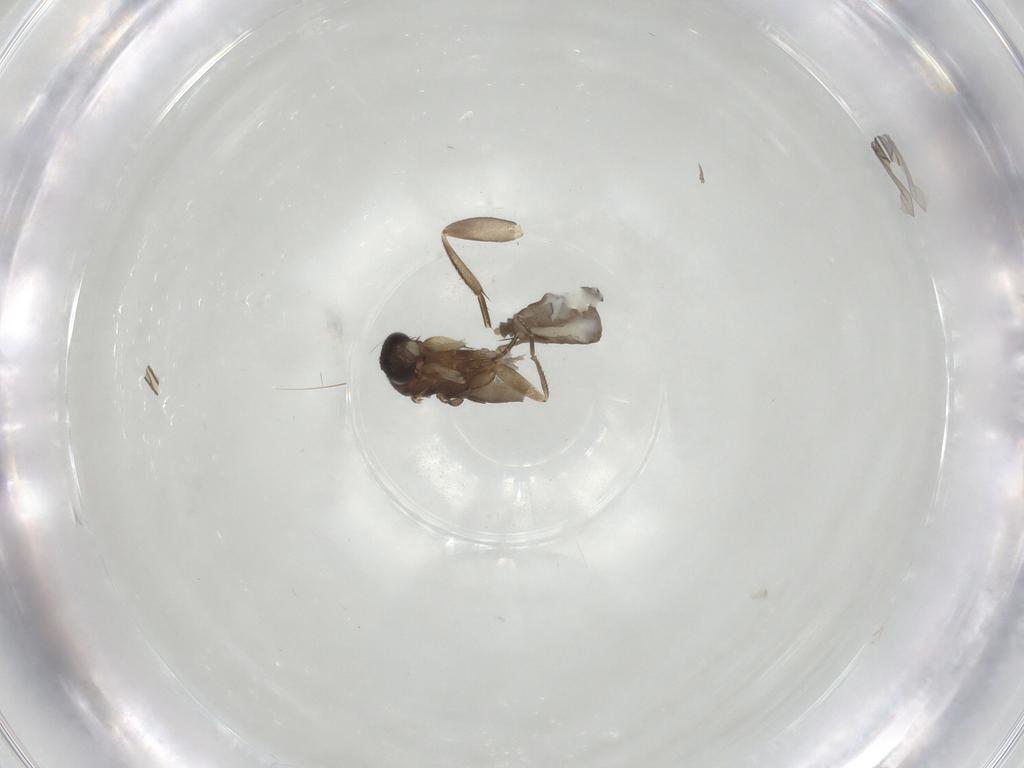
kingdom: Animalia
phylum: Arthropoda
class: Insecta
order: Diptera
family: Phoridae
